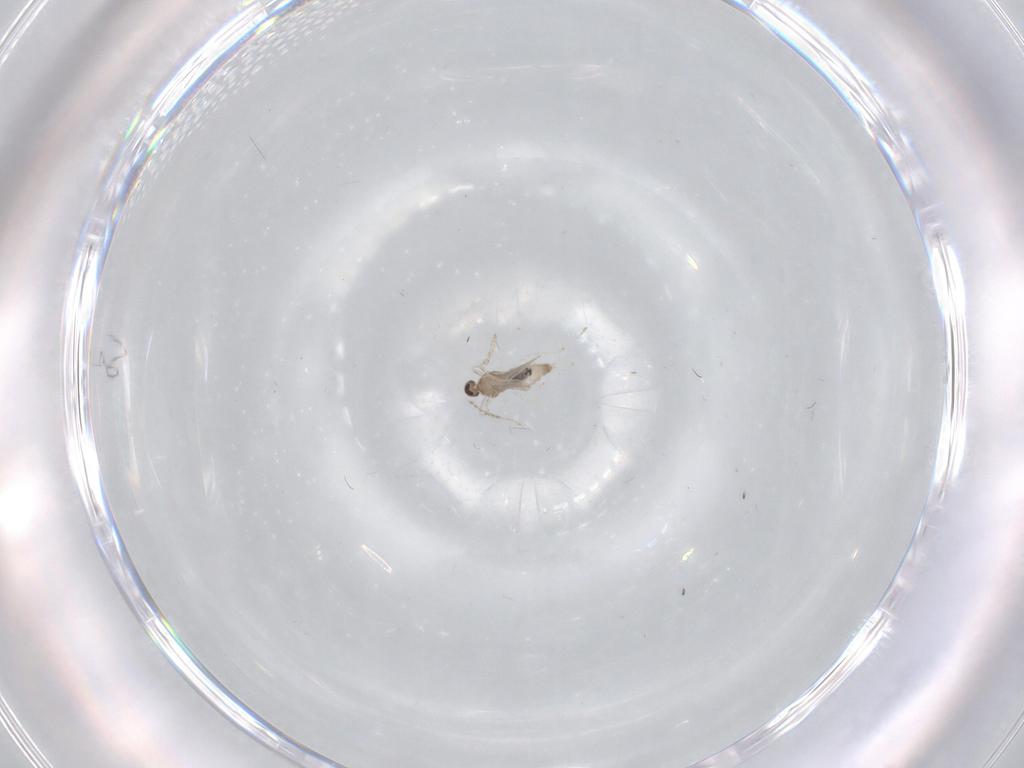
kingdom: Animalia
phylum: Arthropoda
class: Insecta
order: Diptera
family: Cecidomyiidae
